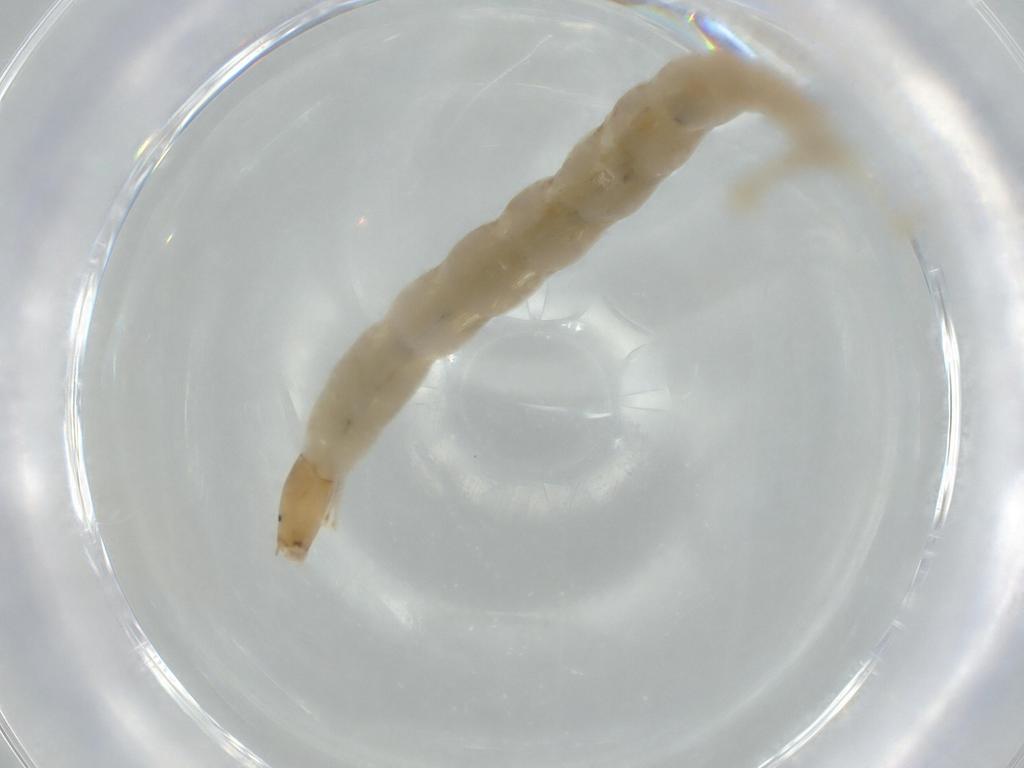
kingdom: Animalia
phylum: Arthropoda
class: Insecta
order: Diptera
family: Chironomidae
